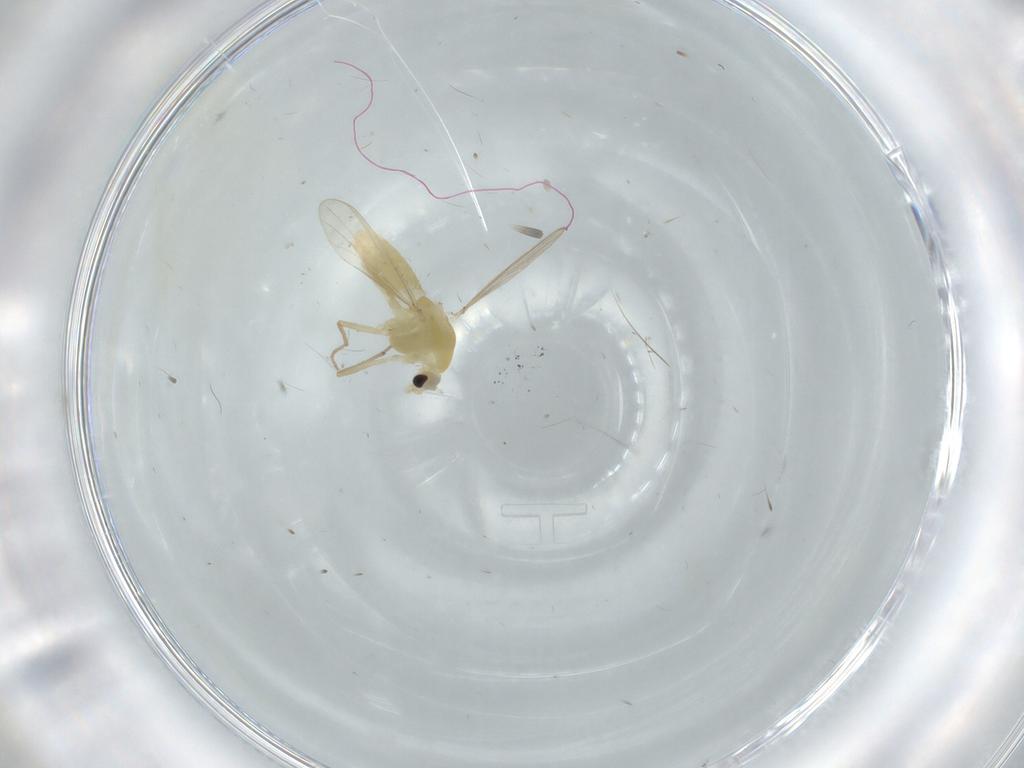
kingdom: Animalia
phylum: Arthropoda
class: Insecta
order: Diptera
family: Chironomidae
